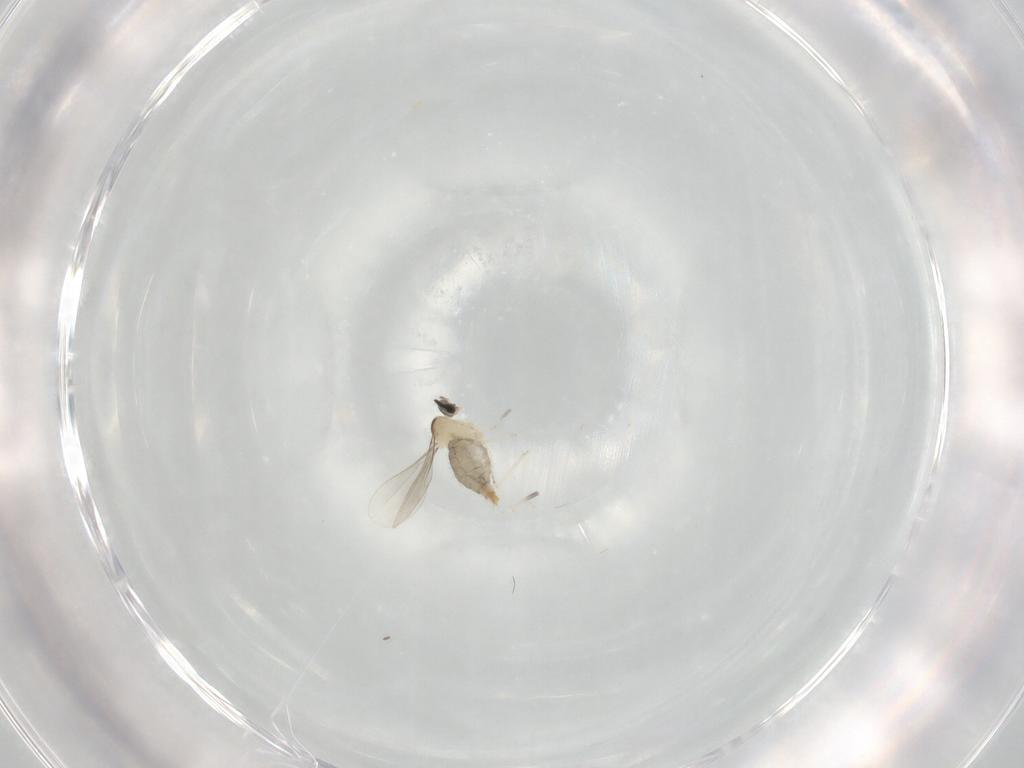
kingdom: Animalia
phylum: Arthropoda
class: Insecta
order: Diptera
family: Cecidomyiidae
